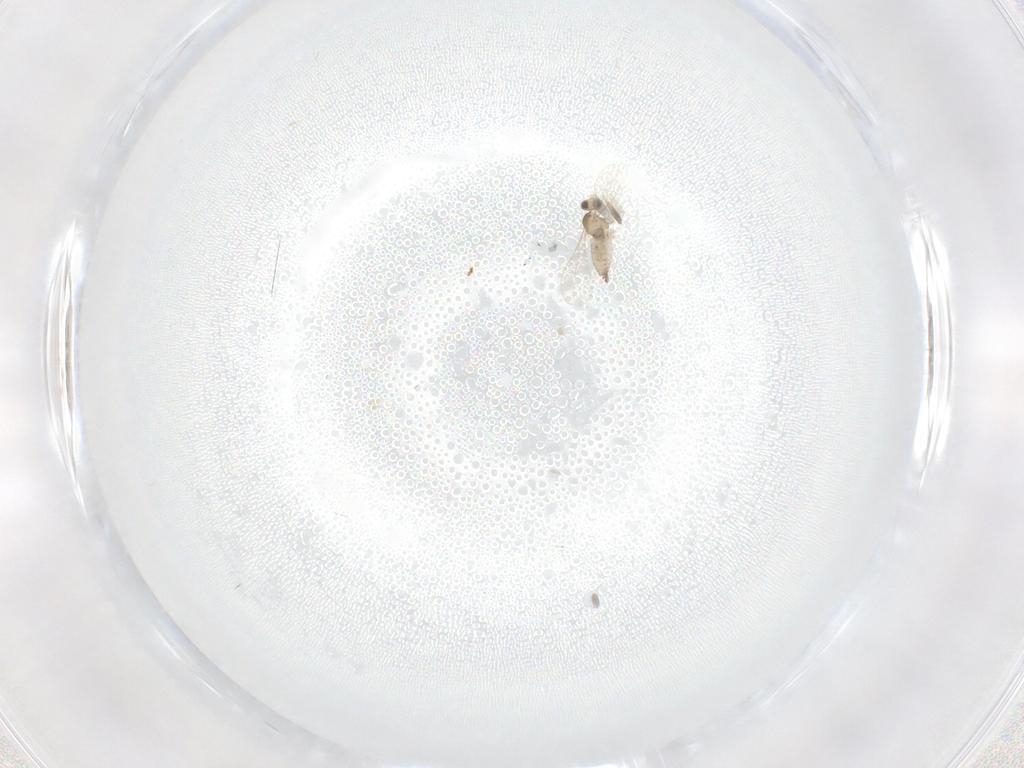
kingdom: Animalia
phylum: Arthropoda
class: Insecta
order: Diptera
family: Cecidomyiidae
